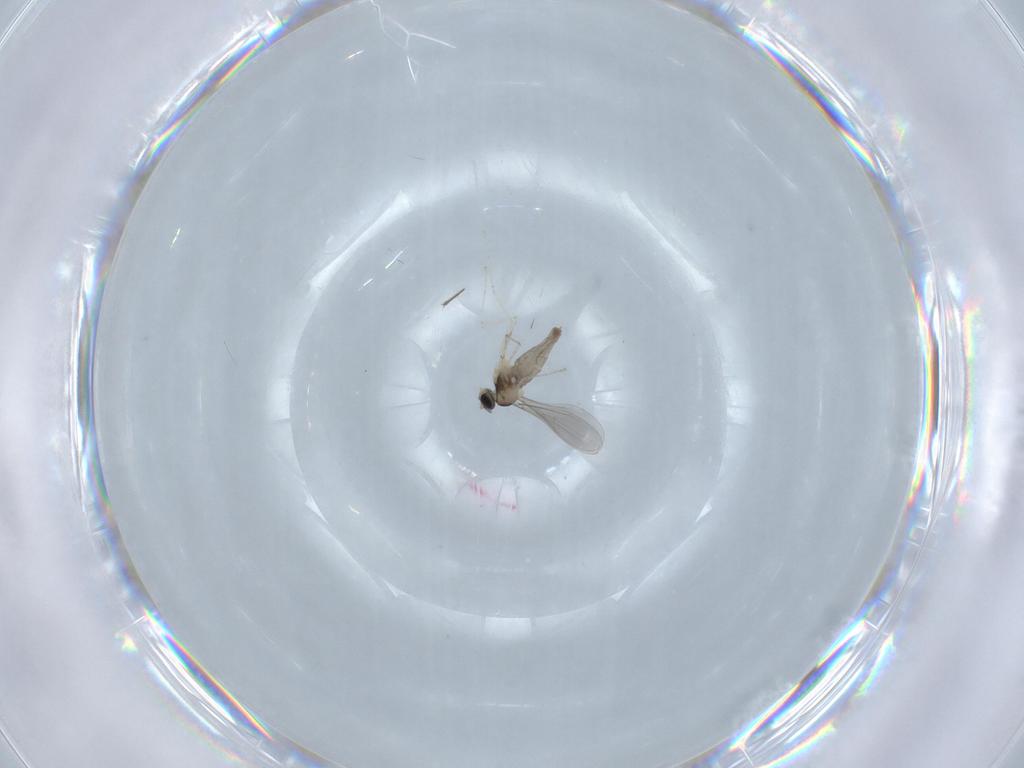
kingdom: Animalia
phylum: Arthropoda
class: Insecta
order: Diptera
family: Cecidomyiidae
